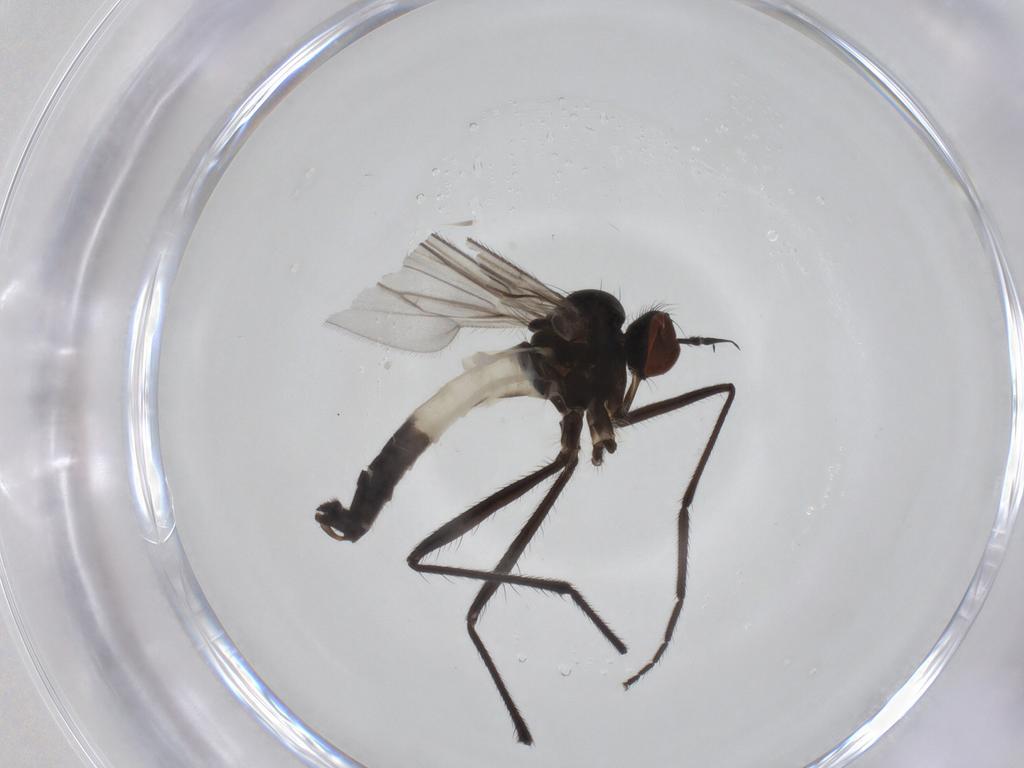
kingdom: Animalia
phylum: Arthropoda
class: Insecta
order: Diptera
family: Empididae
